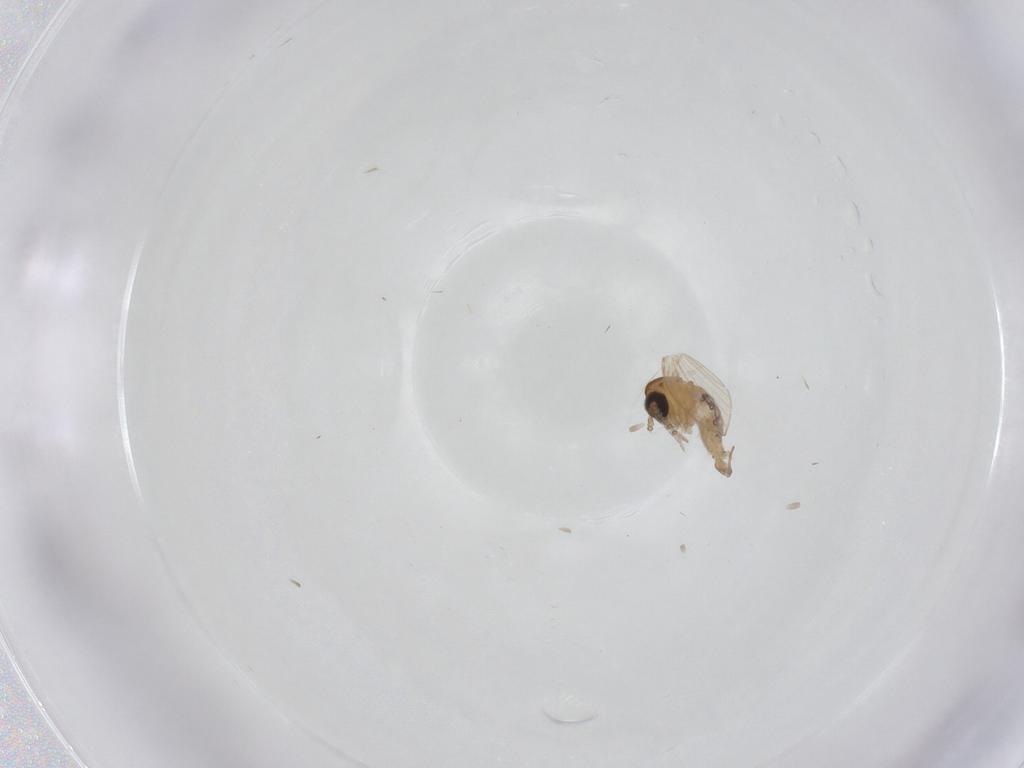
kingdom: Animalia
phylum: Arthropoda
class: Insecta
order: Diptera
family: Psychodidae
